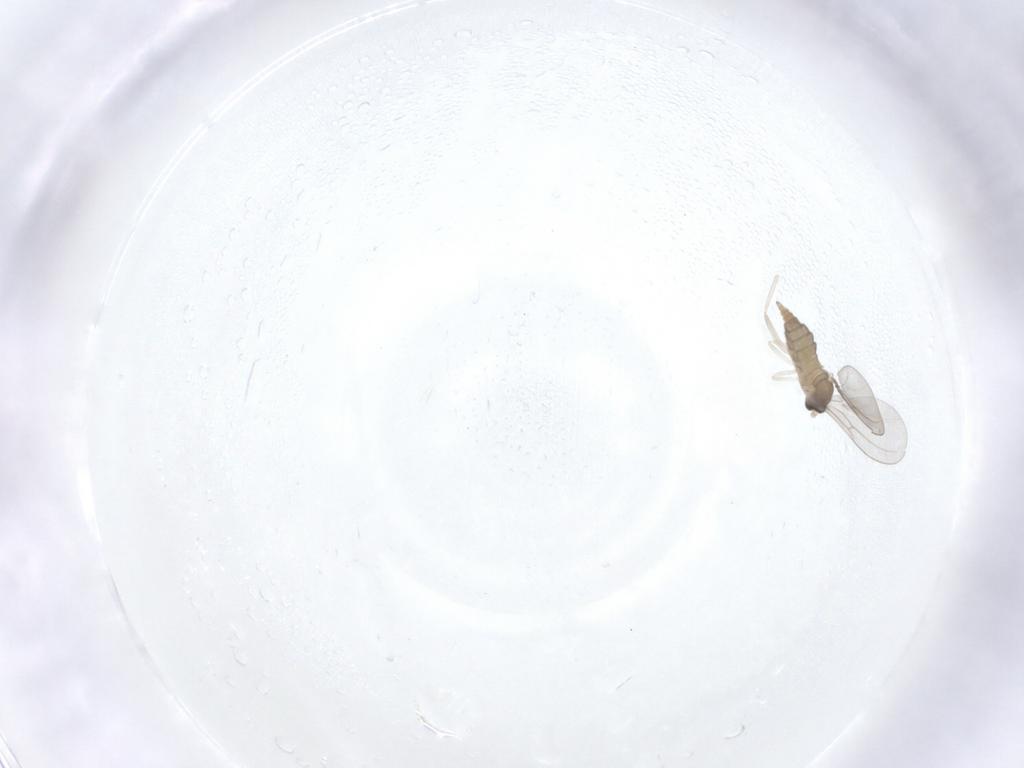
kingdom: Animalia
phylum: Arthropoda
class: Insecta
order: Diptera
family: Cecidomyiidae
